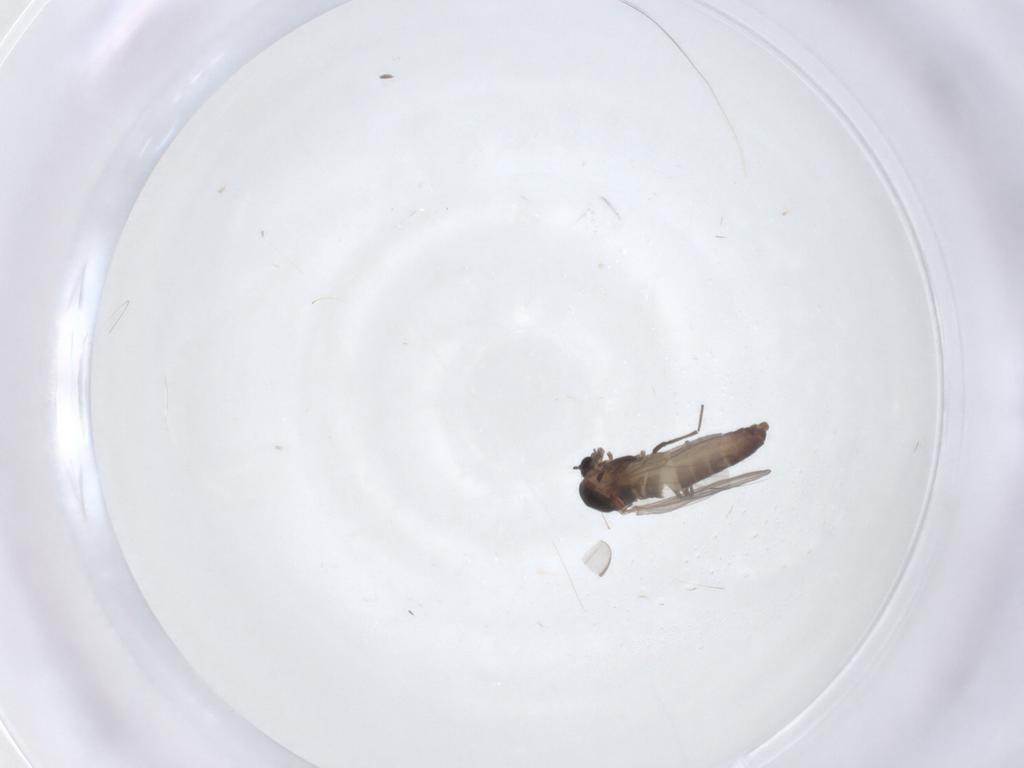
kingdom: Animalia
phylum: Arthropoda
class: Insecta
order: Diptera
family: Chironomidae
